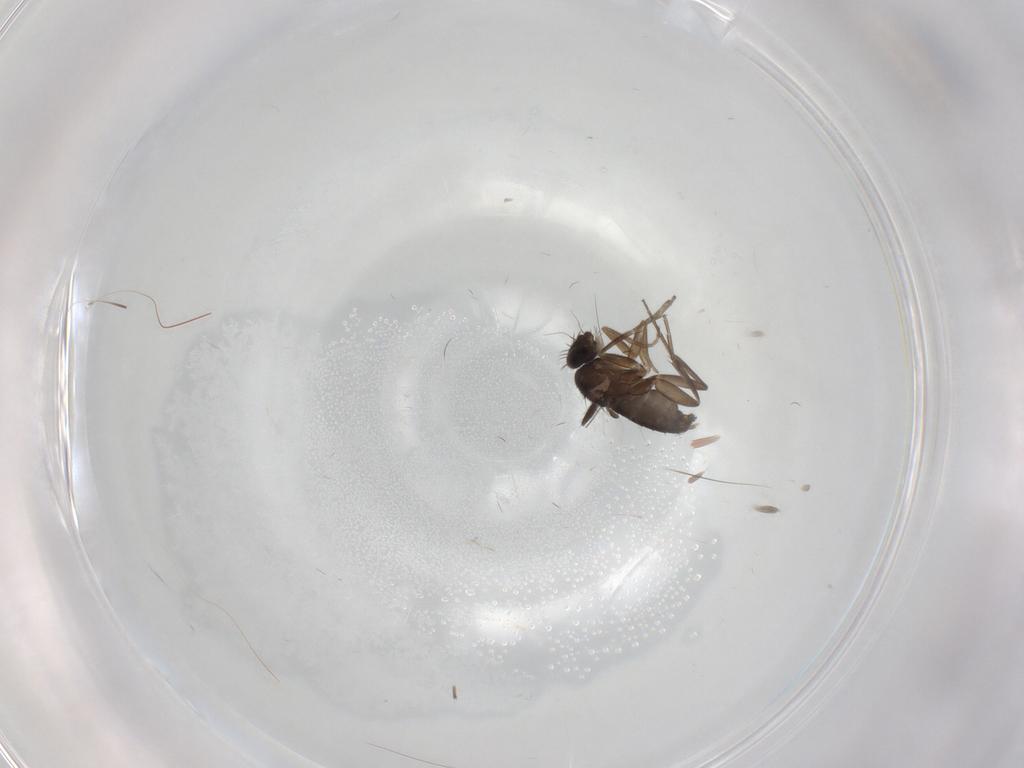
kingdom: Animalia
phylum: Arthropoda
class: Insecta
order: Diptera
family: Phoridae
